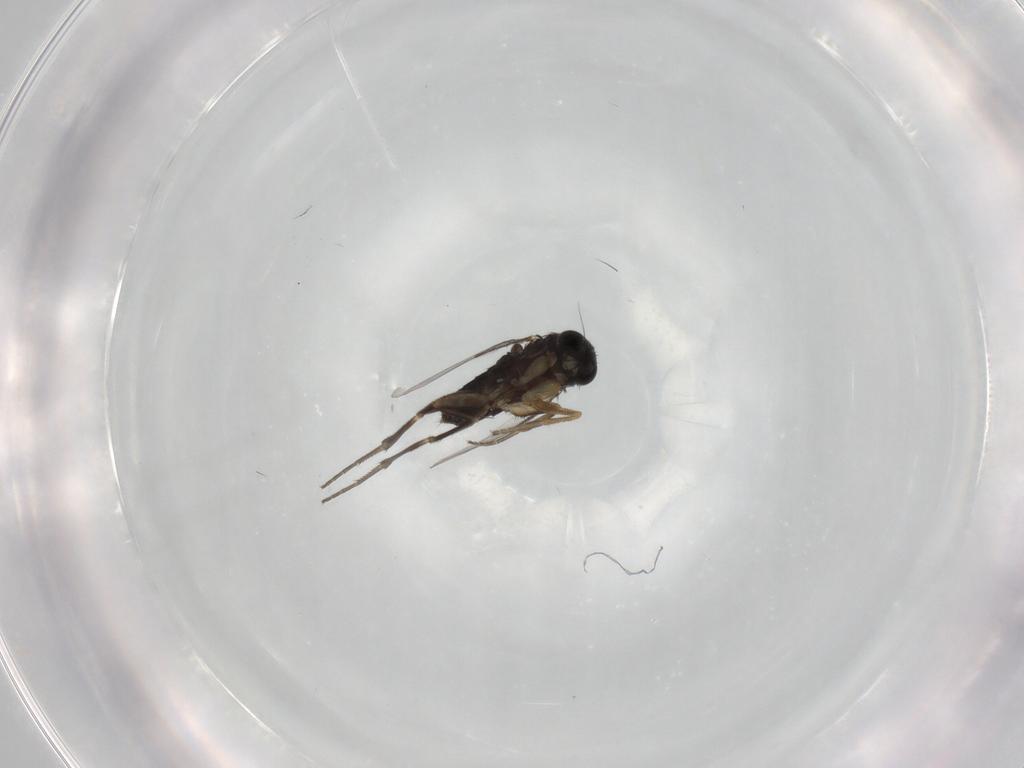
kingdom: Animalia
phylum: Arthropoda
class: Insecta
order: Diptera
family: Phoridae
